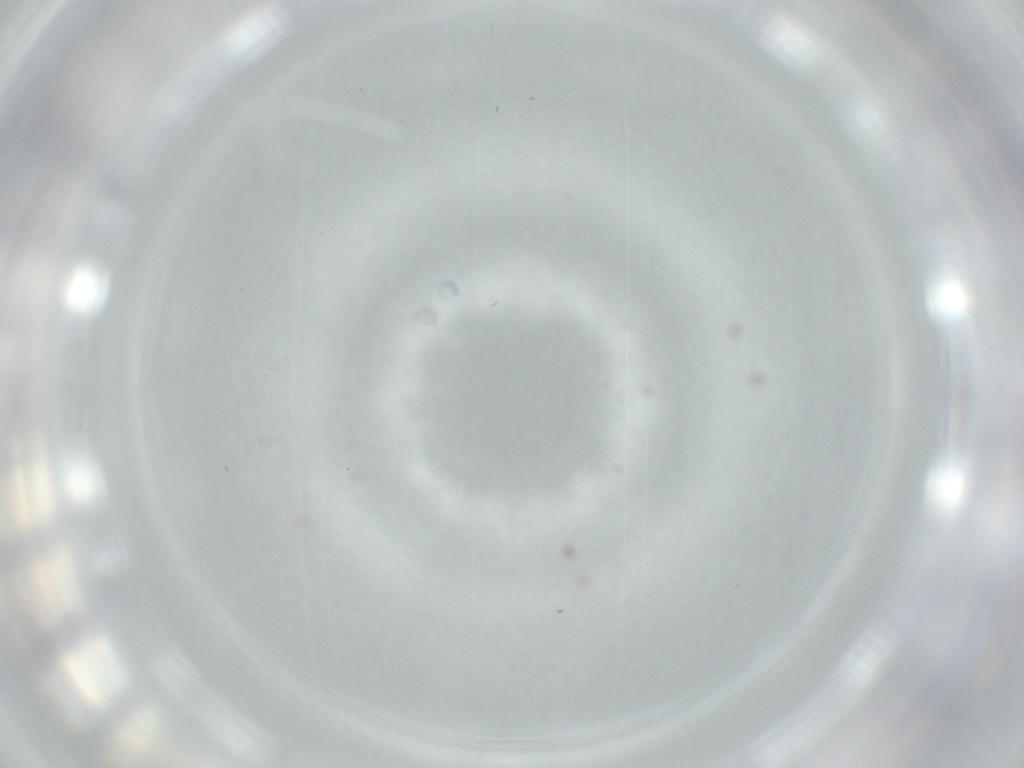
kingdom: Animalia
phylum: Arthropoda
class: Insecta
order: Diptera
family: Cecidomyiidae
